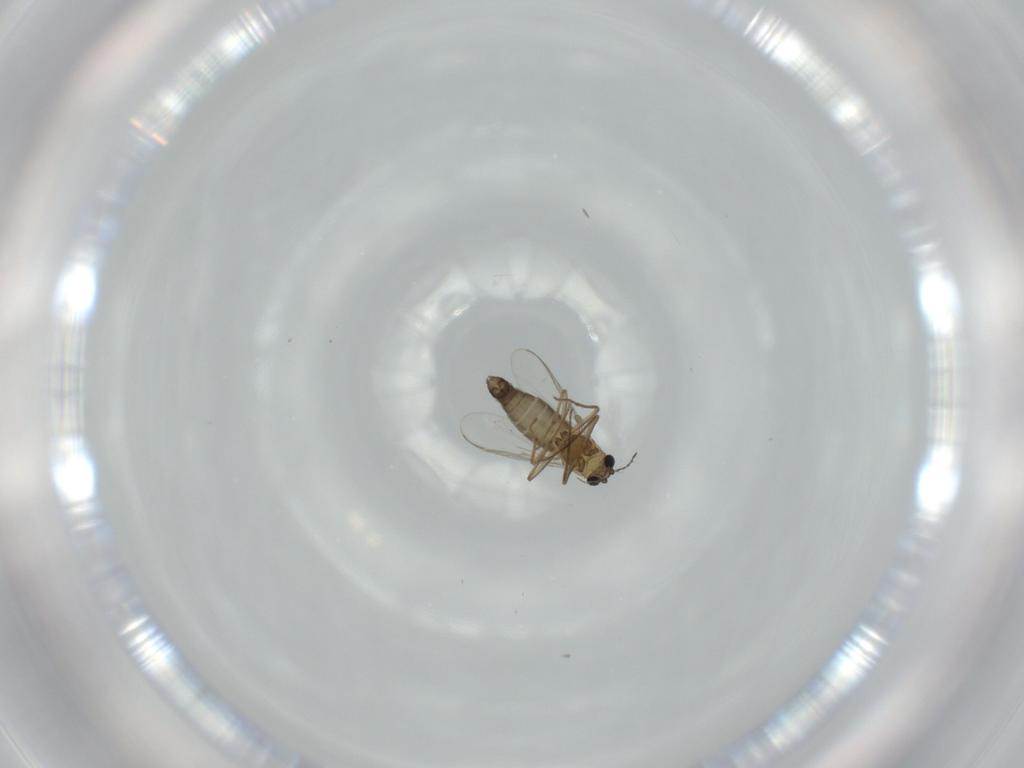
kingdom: Animalia
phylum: Arthropoda
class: Insecta
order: Diptera
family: Chironomidae
